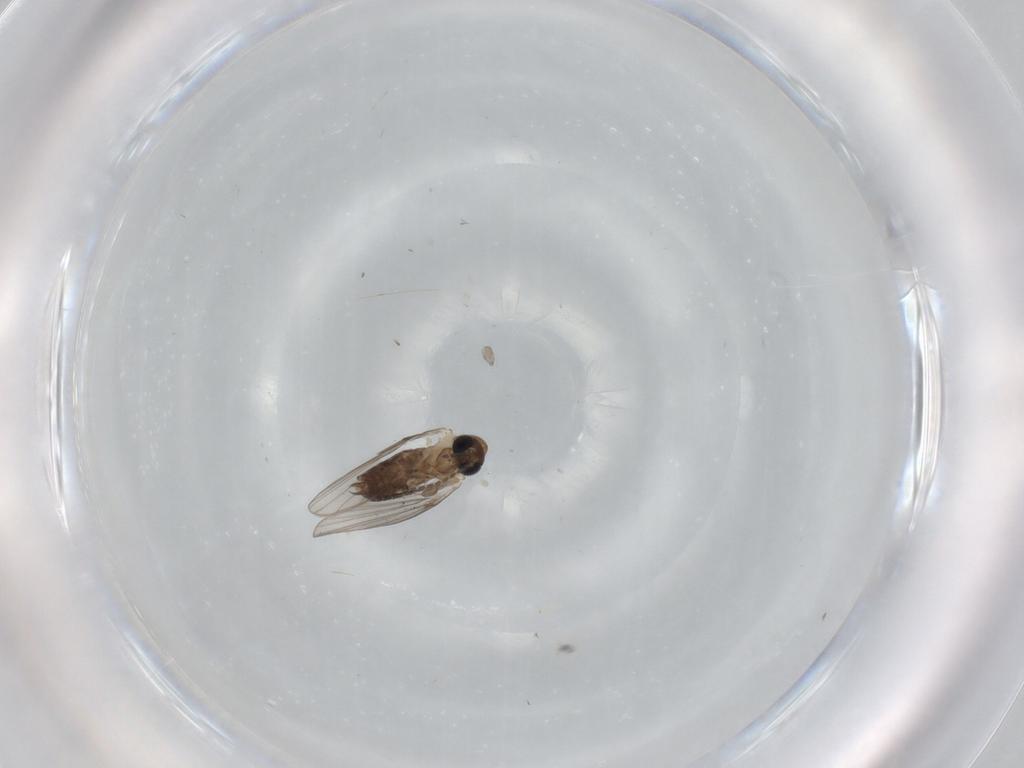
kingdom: Animalia
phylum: Arthropoda
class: Insecta
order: Diptera
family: Psychodidae
